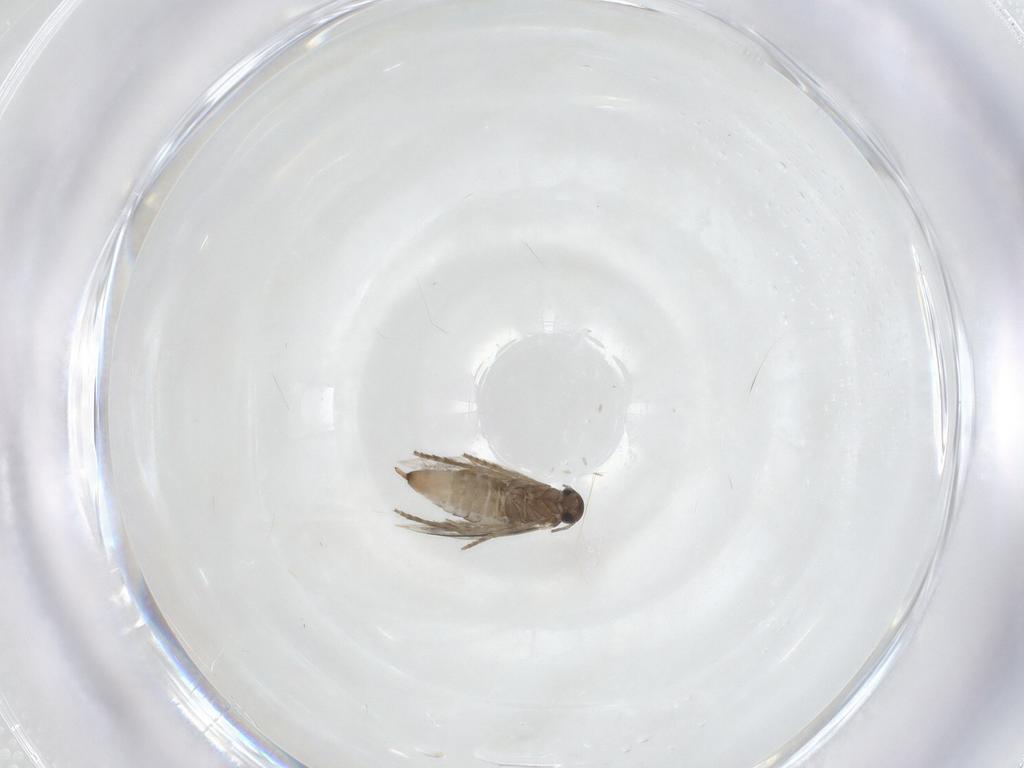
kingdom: Animalia
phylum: Arthropoda
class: Insecta
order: Lepidoptera
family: Heliozelidae
